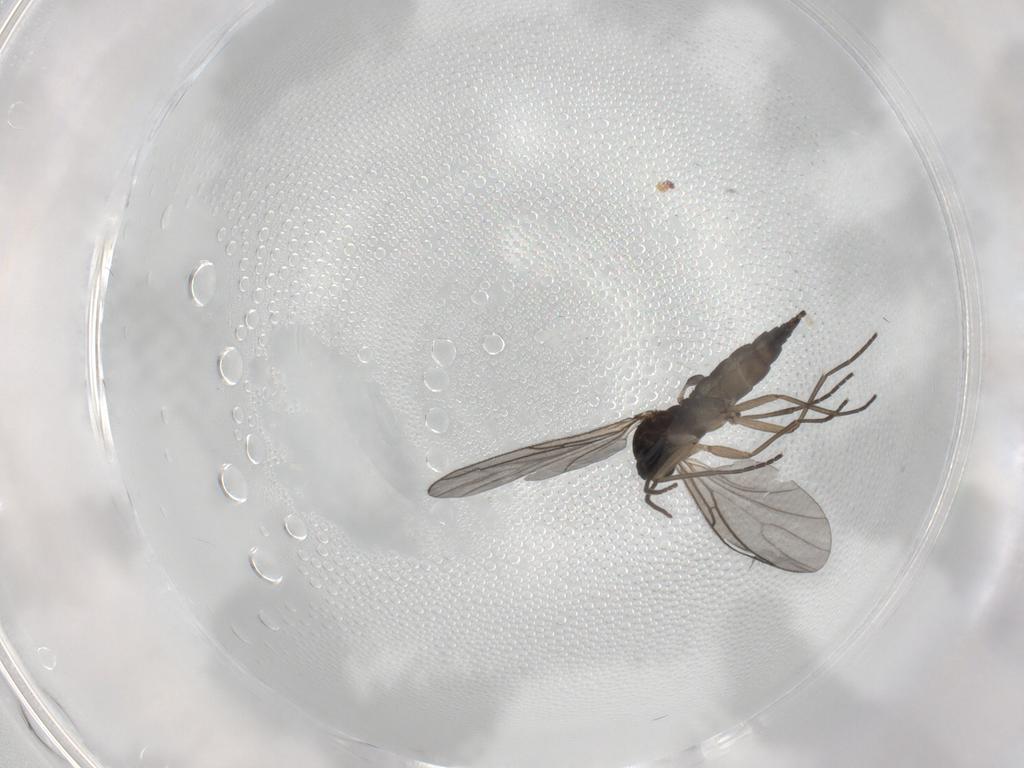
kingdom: Animalia
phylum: Arthropoda
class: Insecta
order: Diptera
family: Sciaridae
